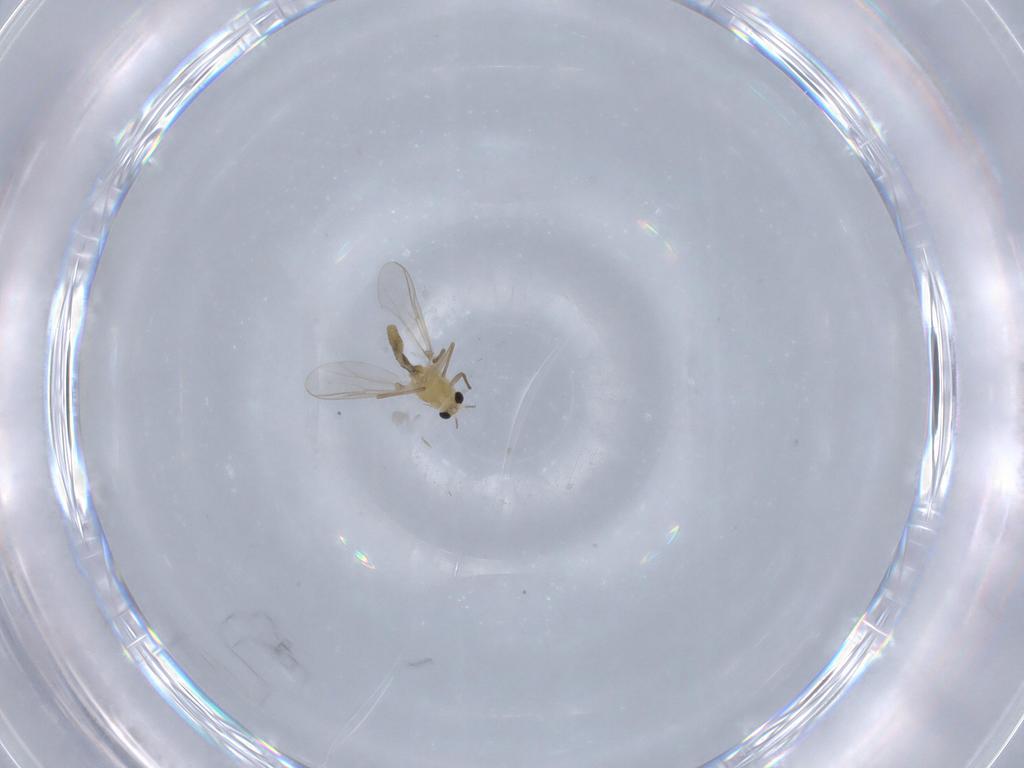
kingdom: Animalia
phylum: Arthropoda
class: Insecta
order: Diptera
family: Chironomidae
